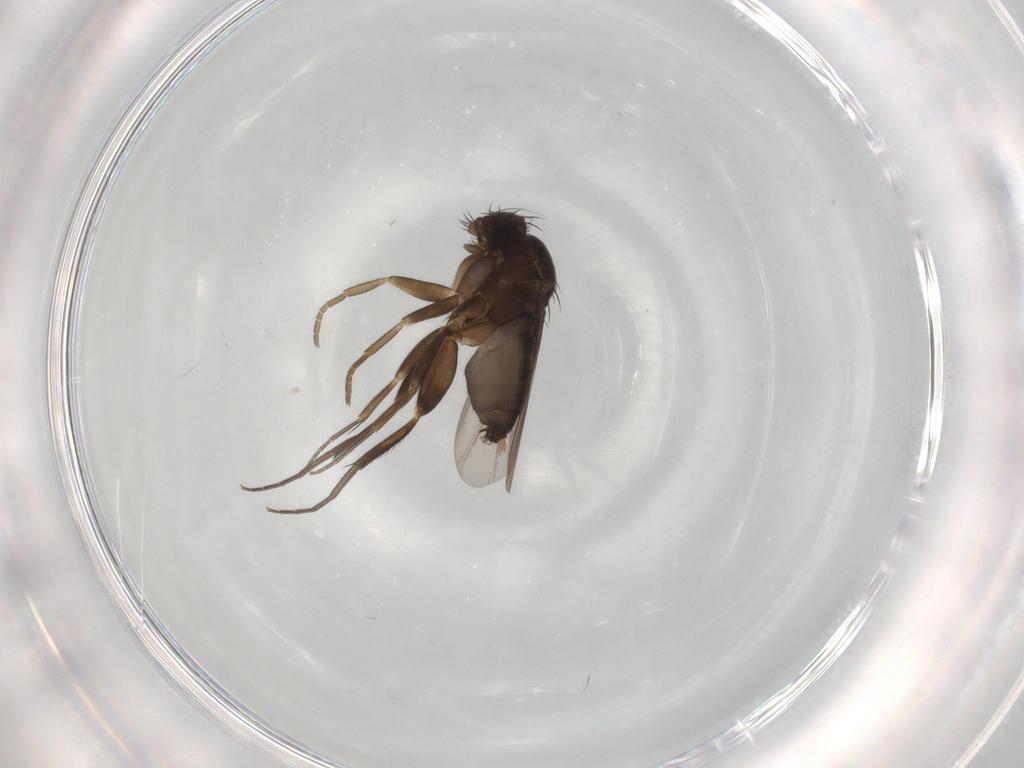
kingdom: Animalia
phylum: Arthropoda
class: Insecta
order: Diptera
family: Phoridae
